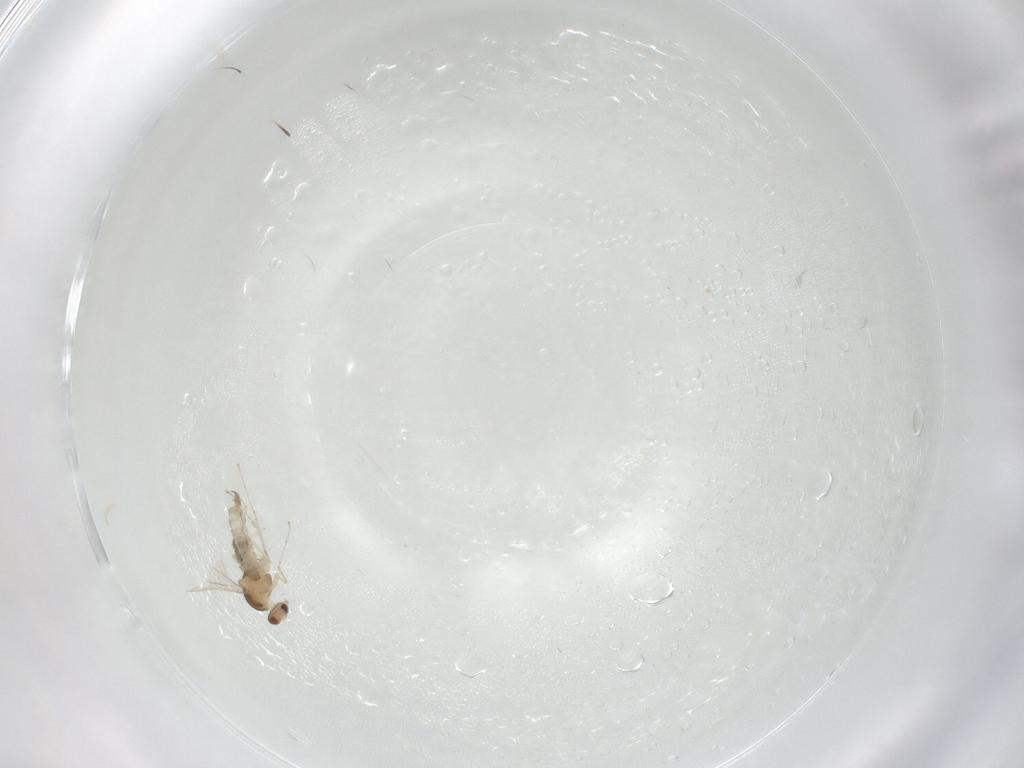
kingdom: Animalia
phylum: Arthropoda
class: Insecta
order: Diptera
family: Cecidomyiidae
